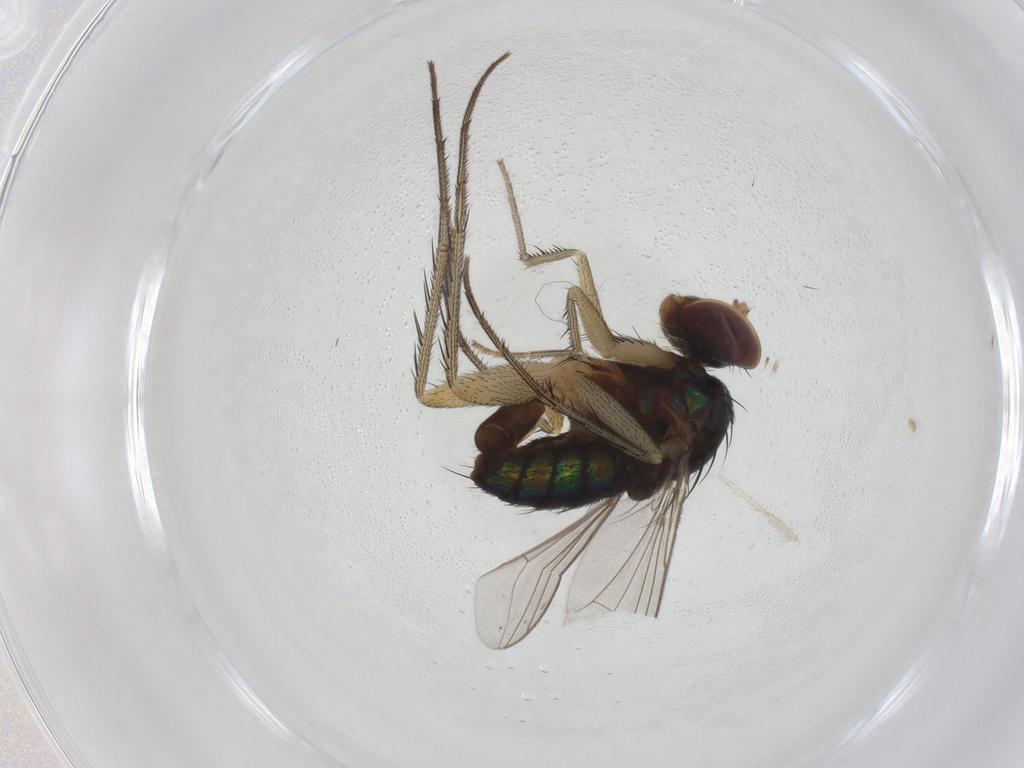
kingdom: Animalia
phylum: Arthropoda
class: Insecta
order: Diptera
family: Dolichopodidae
